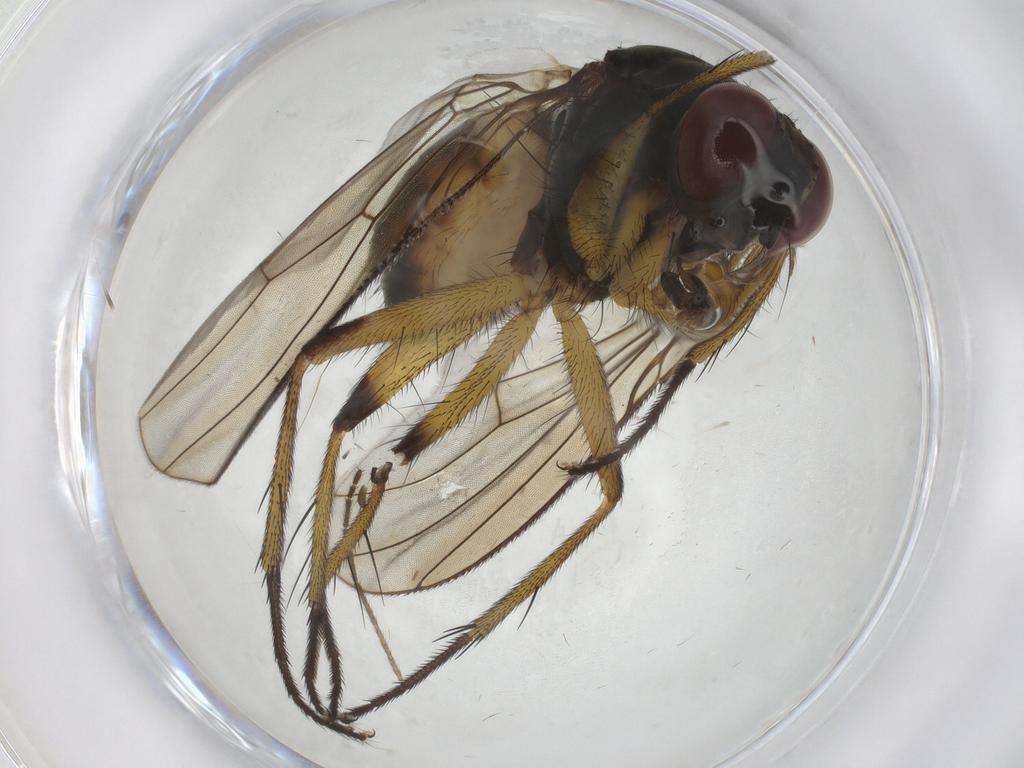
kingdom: Animalia
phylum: Arthropoda
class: Insecta
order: Diptera
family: Muscidae
